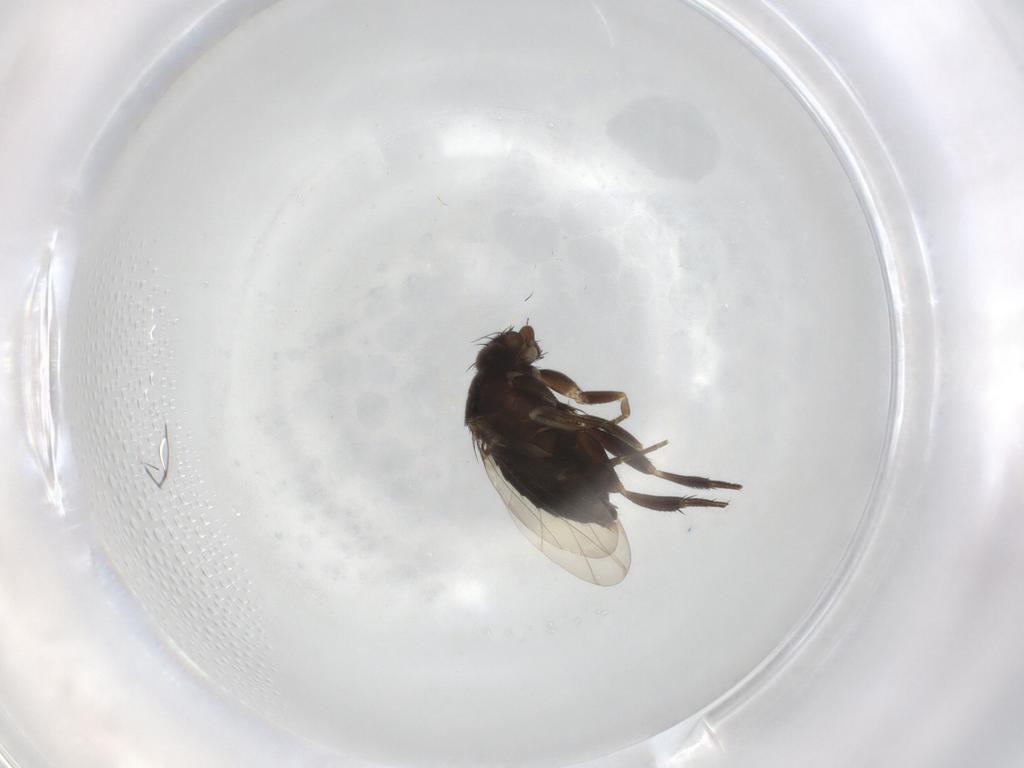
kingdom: Animalia
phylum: Arthropoda
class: Insecta
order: Diptera
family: Phoridae
